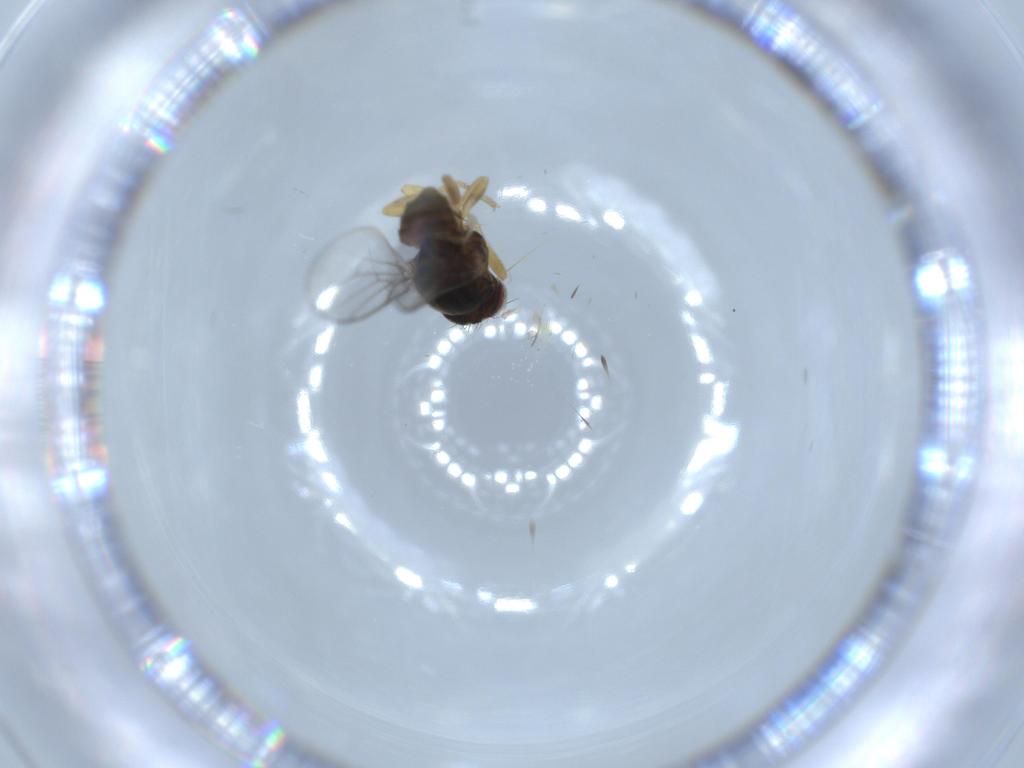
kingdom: Animalia
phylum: Arthropoda
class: Insecta
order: Diptera
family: Chloropidae
